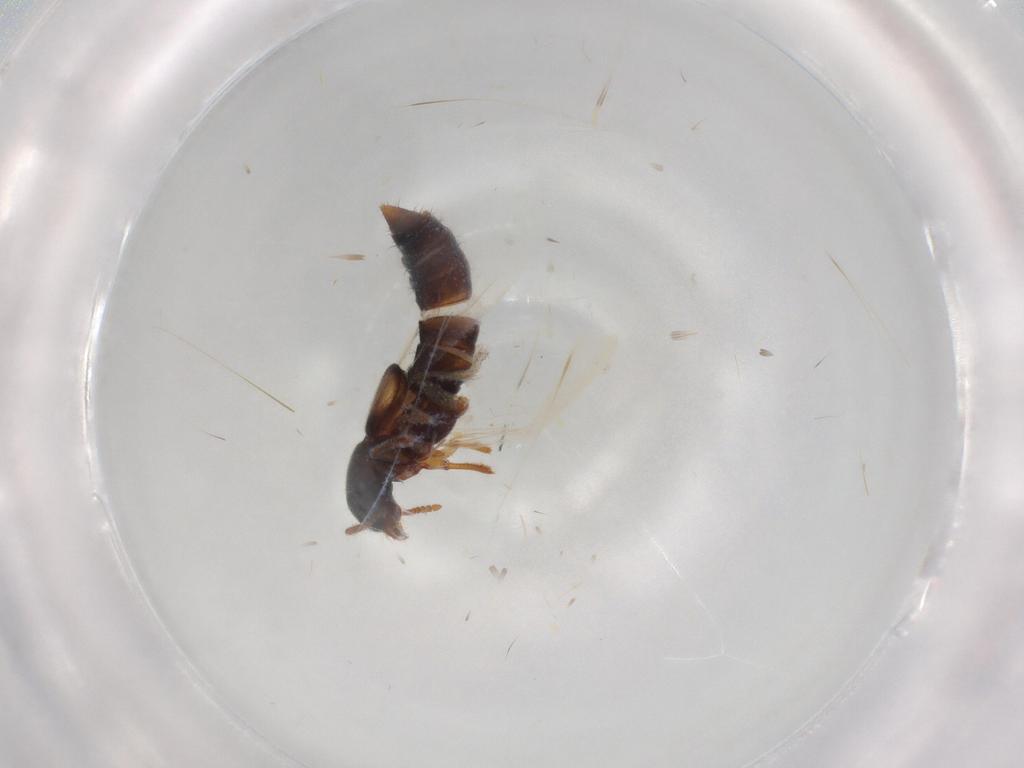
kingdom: Animalia
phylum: Arthropoda
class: Insecta
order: Coleoptera
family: Staphylinidae
